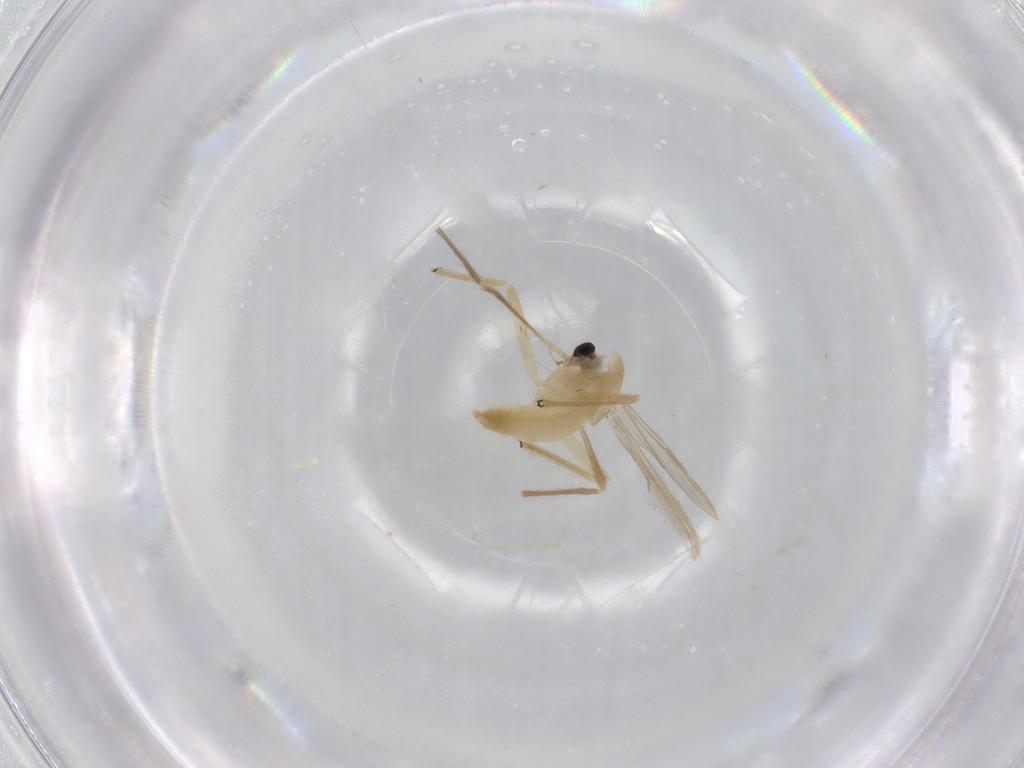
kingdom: Animalia
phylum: Arthropoda
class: Insecta
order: Diptera
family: Chironomidae
